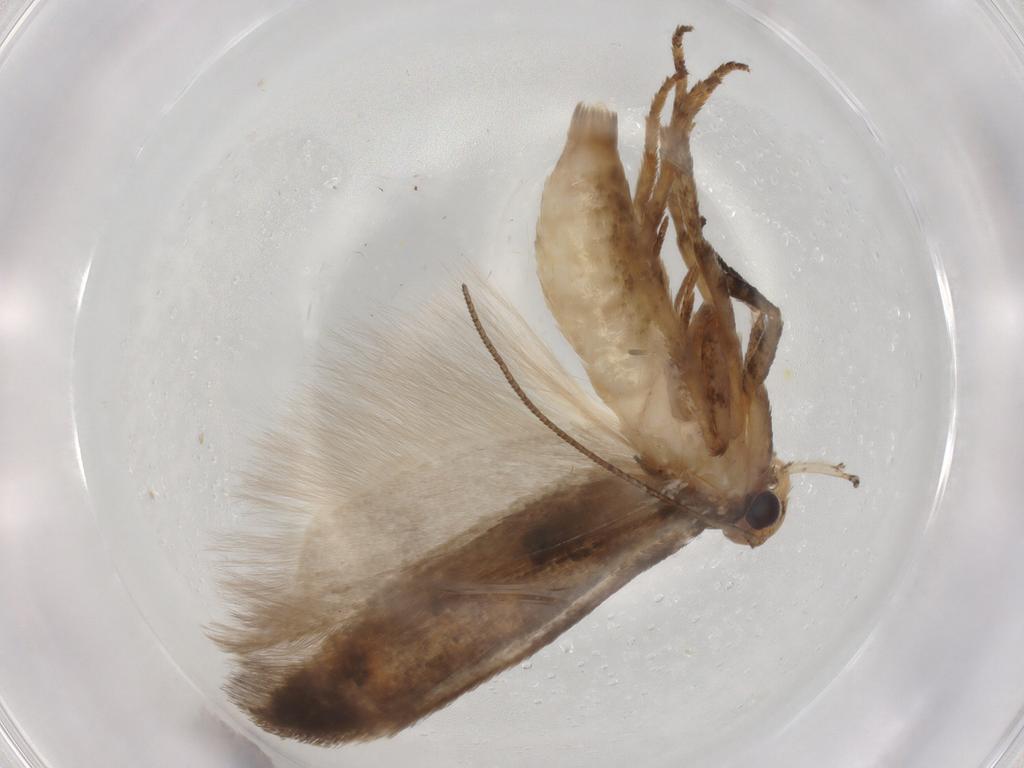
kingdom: Animalia
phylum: Arthropoda
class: Insecta
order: Lepidoptera
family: Gelechiidae
